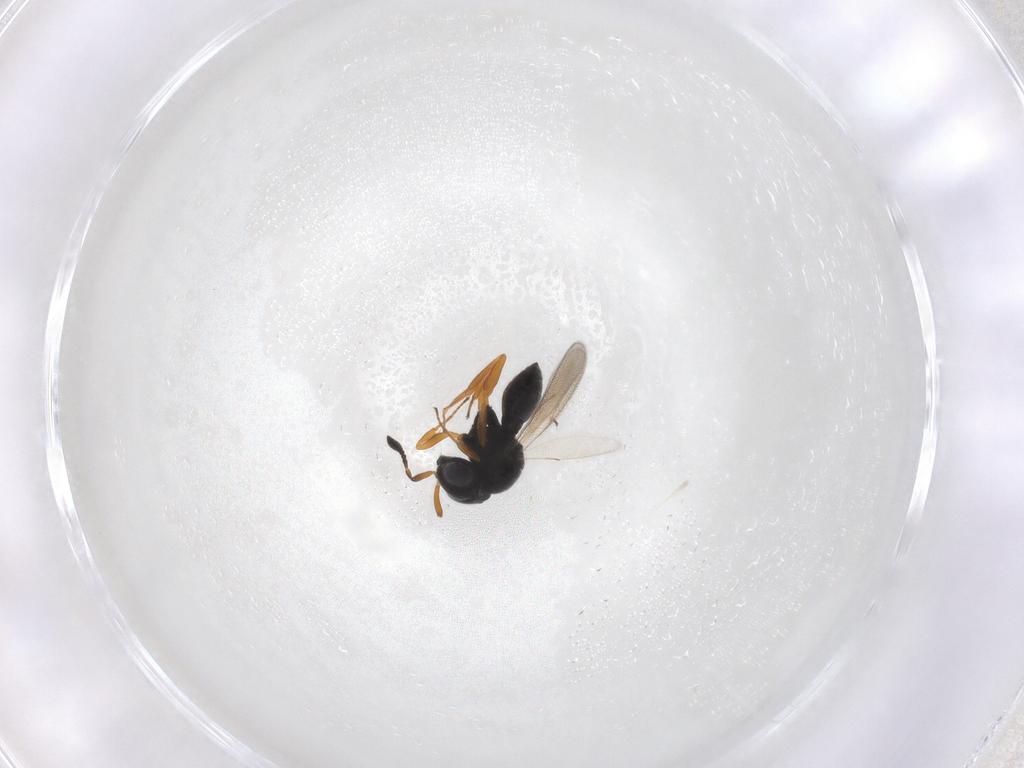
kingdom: Animalia
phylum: Arthropoda
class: Insecta
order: Hymenoptera
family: Scelionidae
